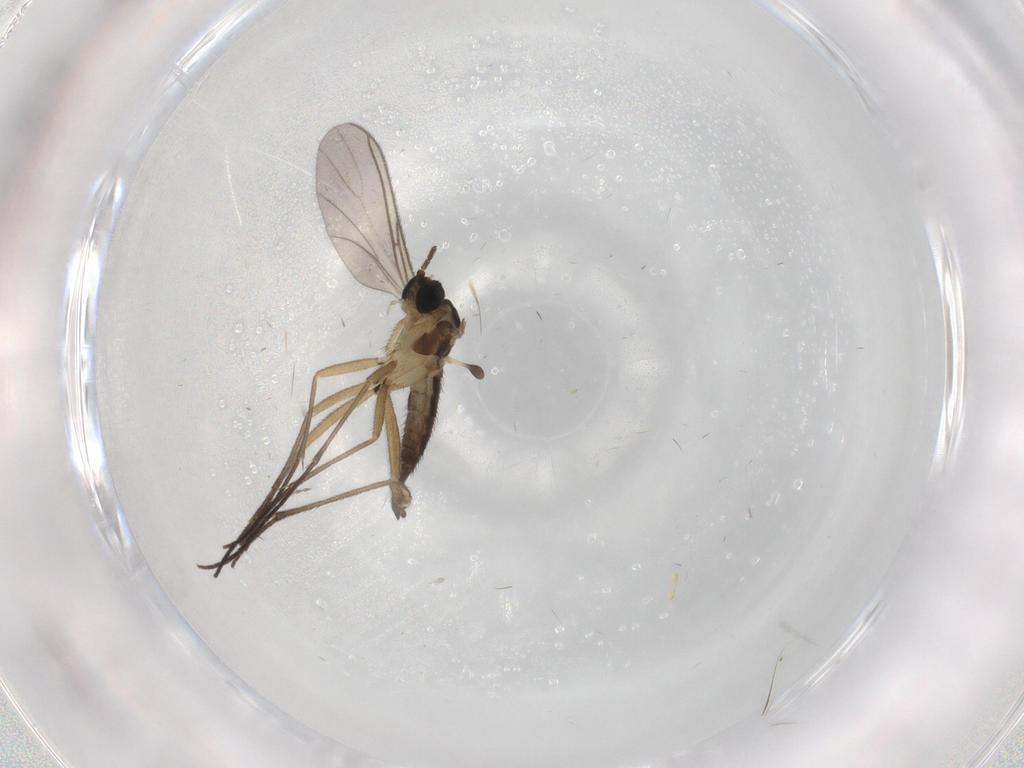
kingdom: Animalia
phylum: Arthropoda
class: Insecta
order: Diptera
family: Psychodidae
